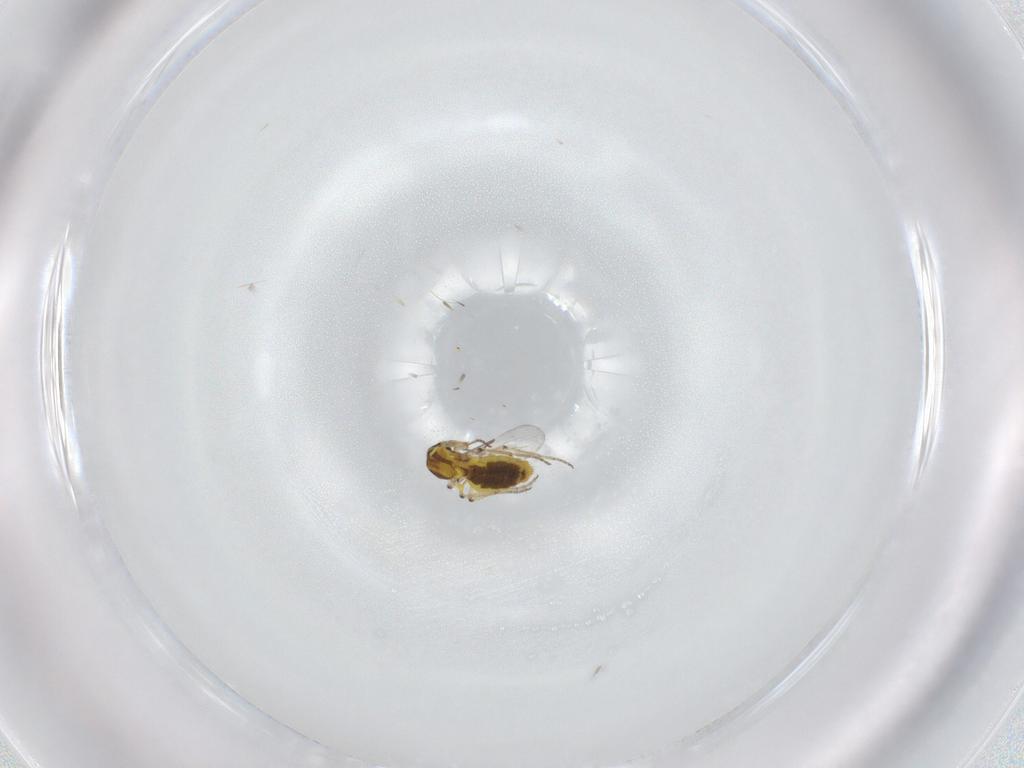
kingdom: Animalia
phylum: Arthropoda
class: Insecta
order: Diptera
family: Ceratopogonidae
